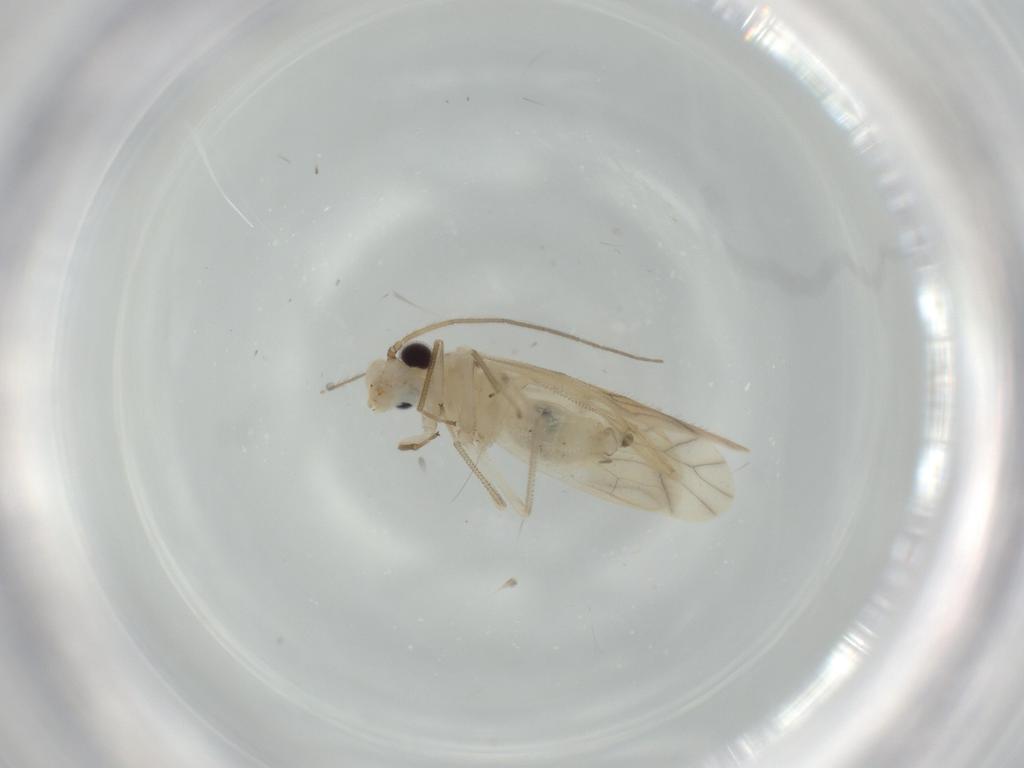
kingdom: Animalia
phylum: Arthropoda
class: Insecta
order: Psocodea
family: Caeciliusidae
